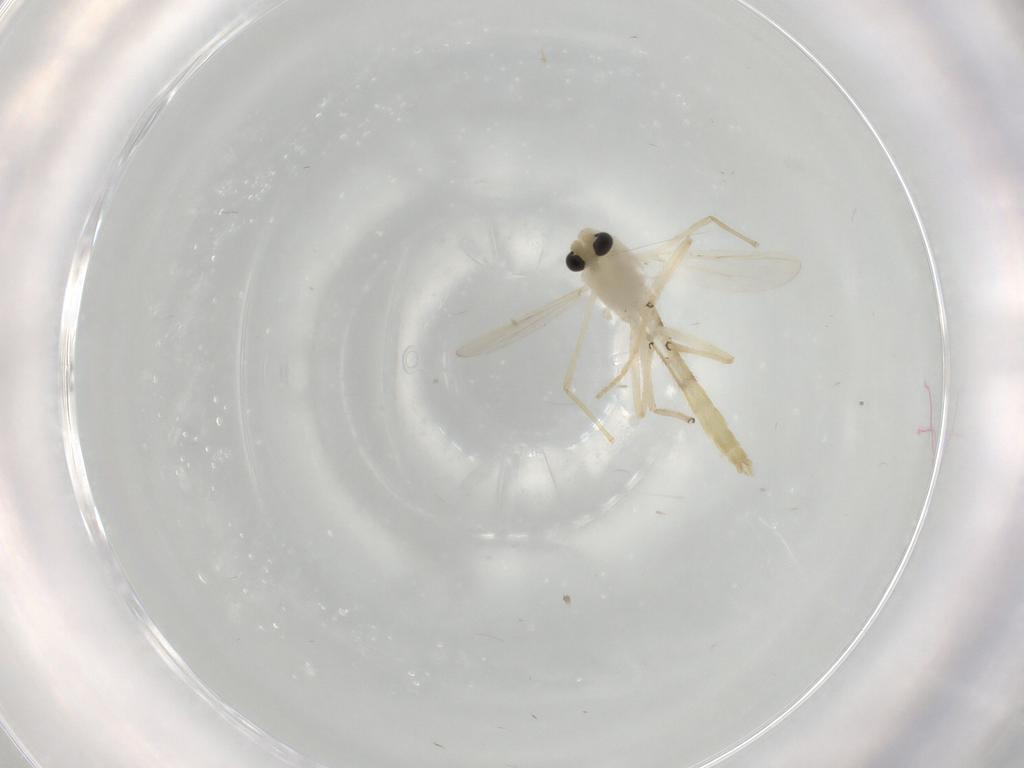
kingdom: Animalia
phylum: Arthropoda
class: Insecta
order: Diptera
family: Chironomidae
